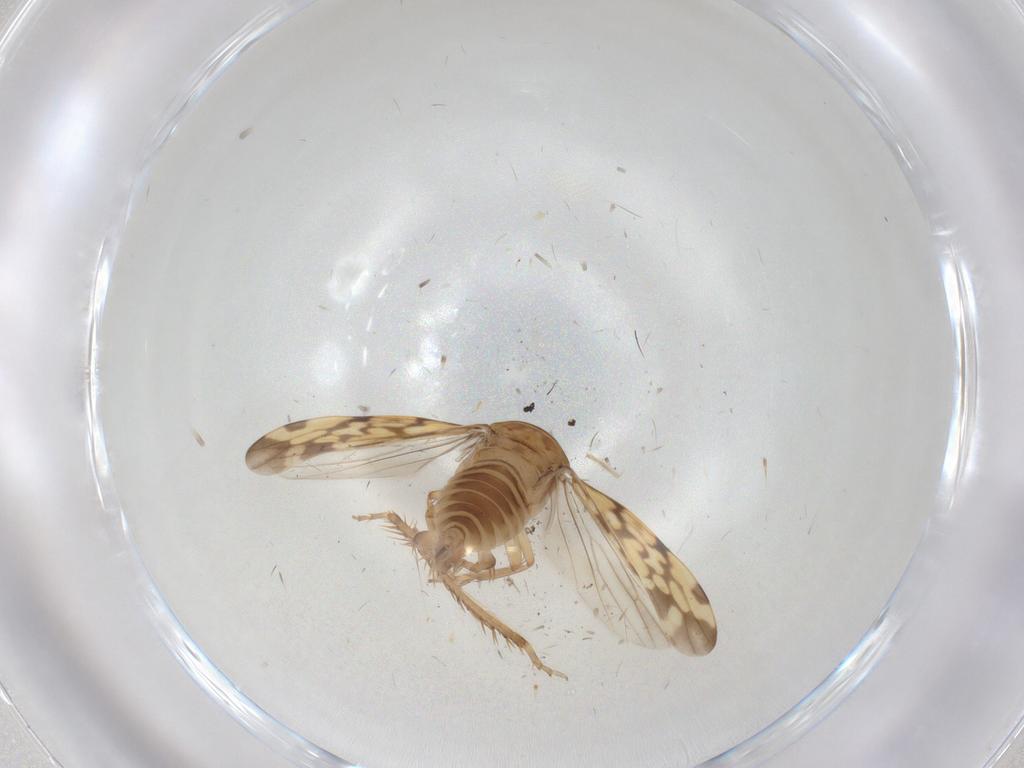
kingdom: Animalia
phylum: Arthropoda
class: Insecta
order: Hemiptera
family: Cicadellidae
